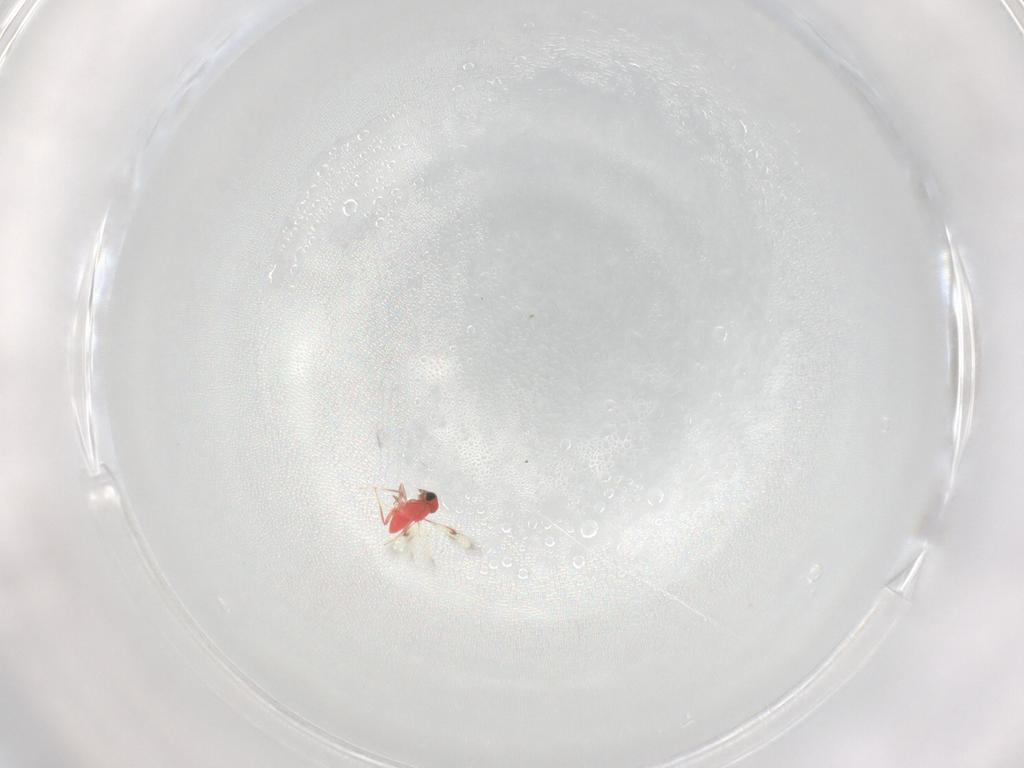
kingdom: Animalia
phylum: Arthropoda
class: Insecta
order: Hymenoptera
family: Trichogrammatidae
